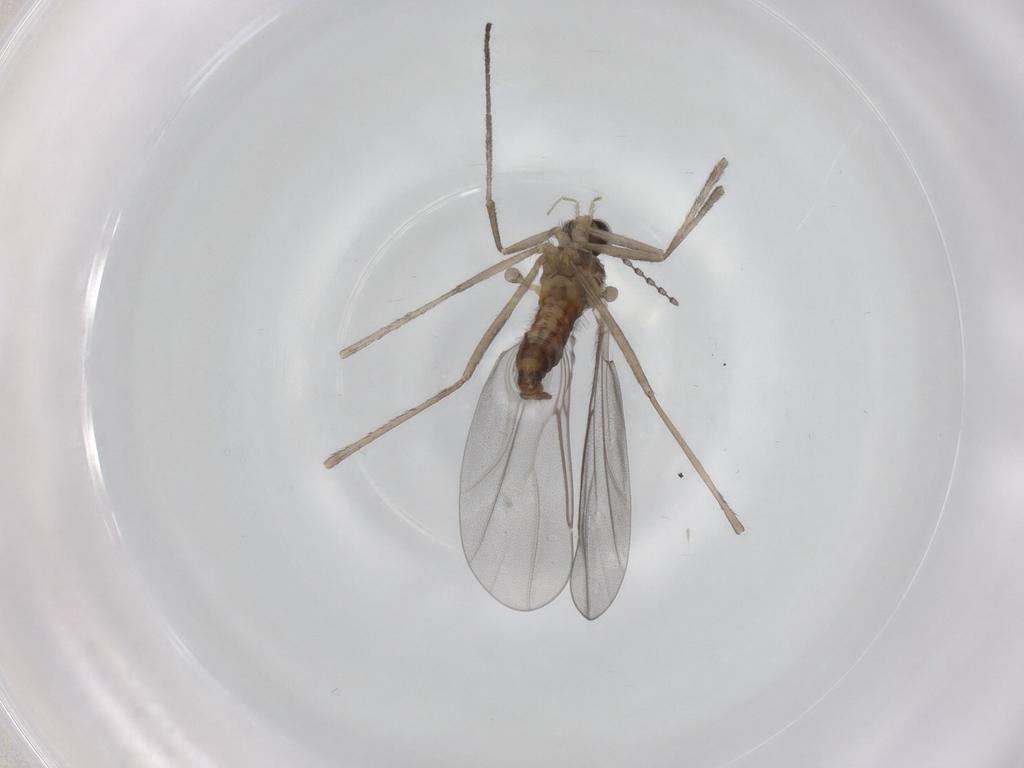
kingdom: Animalia
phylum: Arthropoda
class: Insecta
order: Diptera
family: Cecidomyiidae
